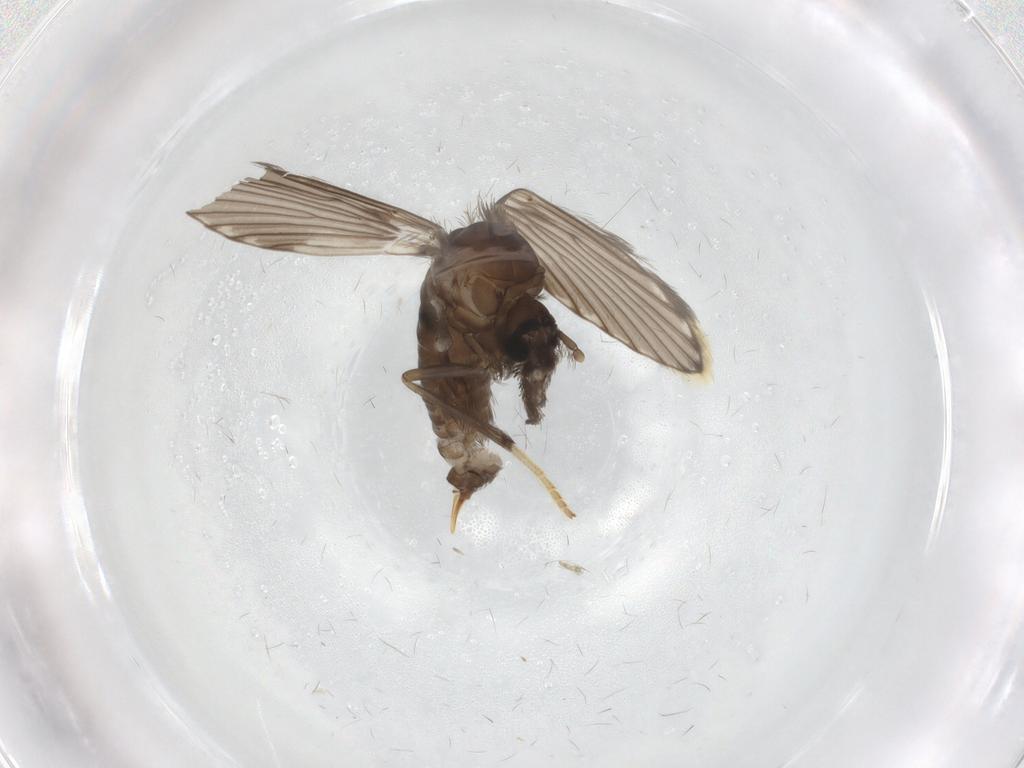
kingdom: Animalia
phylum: Arthropoda
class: Insecta
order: Diptera
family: Psychodidae
